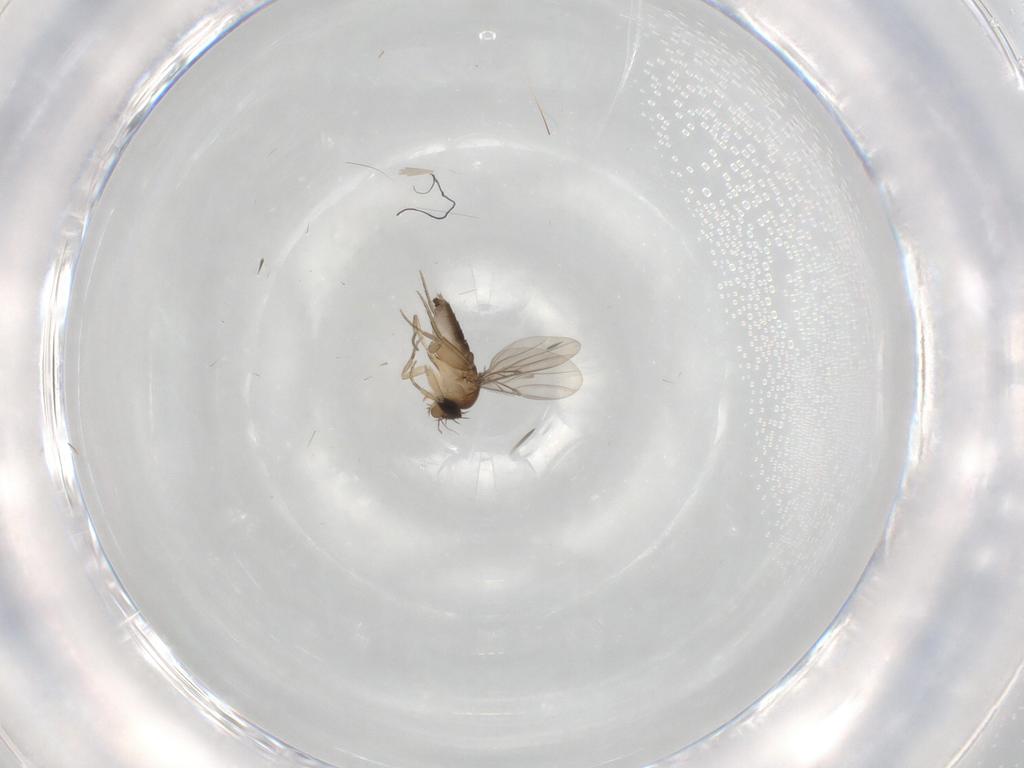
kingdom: Animalia
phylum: Arthropoda
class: Insecta
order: Diptera
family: Phoridae
